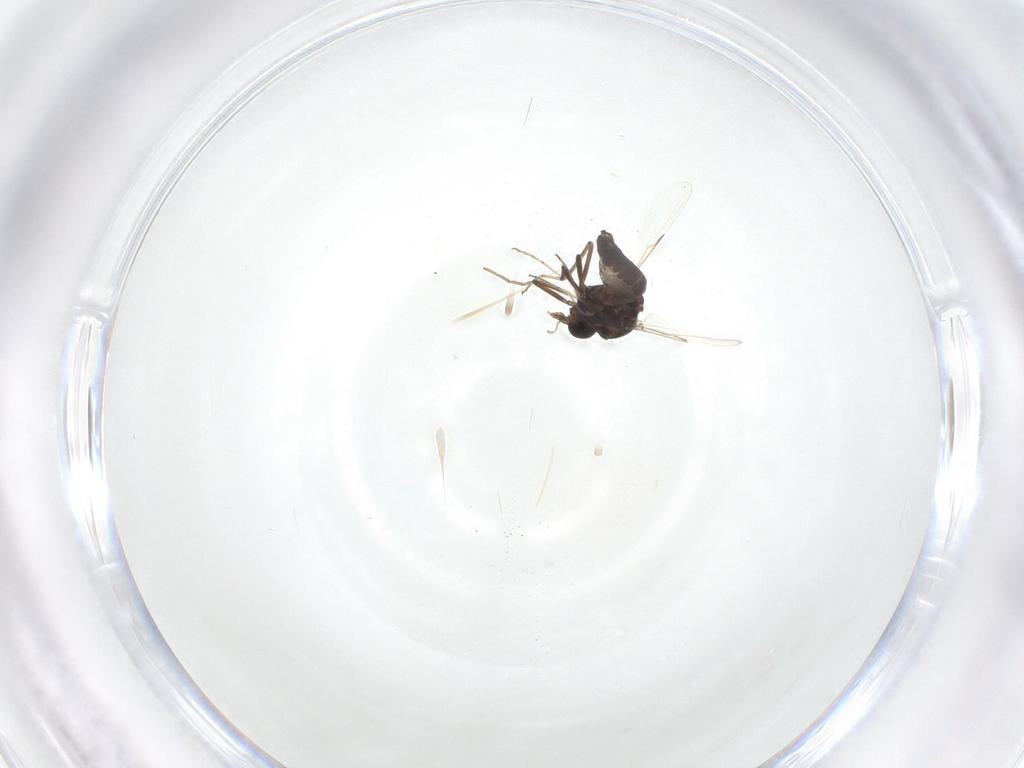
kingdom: Animalia
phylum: Arthropoda
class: Insecta
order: Diptera
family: Ceratopogonidae
